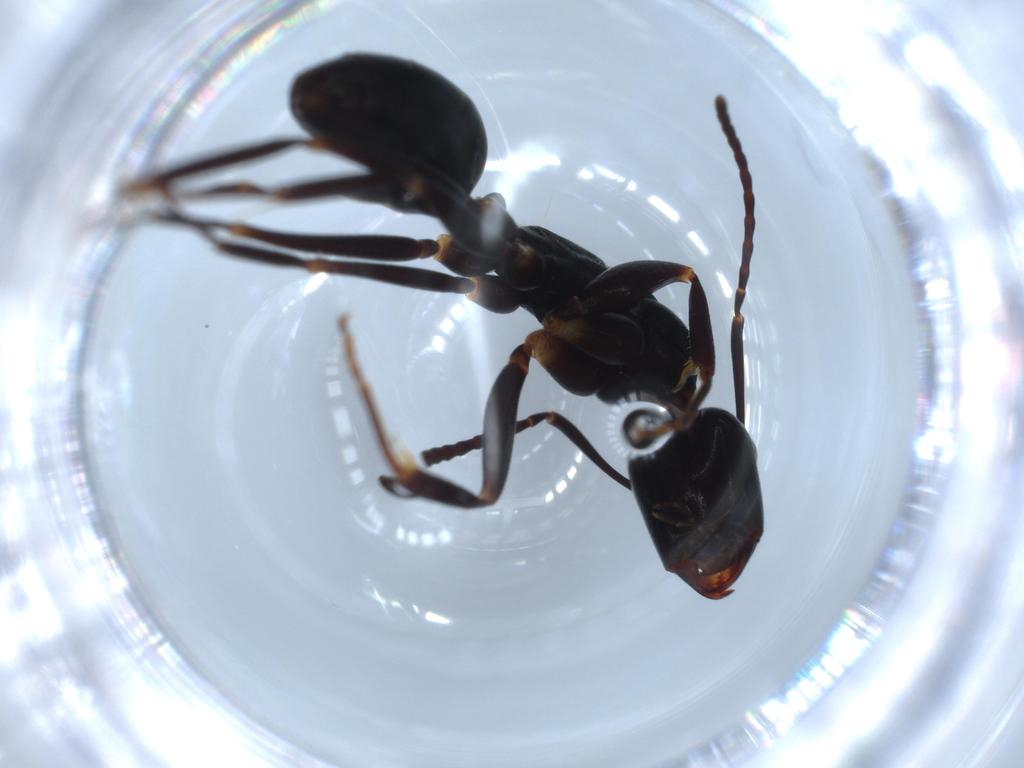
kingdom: Animalia
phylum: Arthropoda
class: Insecta
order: Hymenoptera
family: Formicidae
